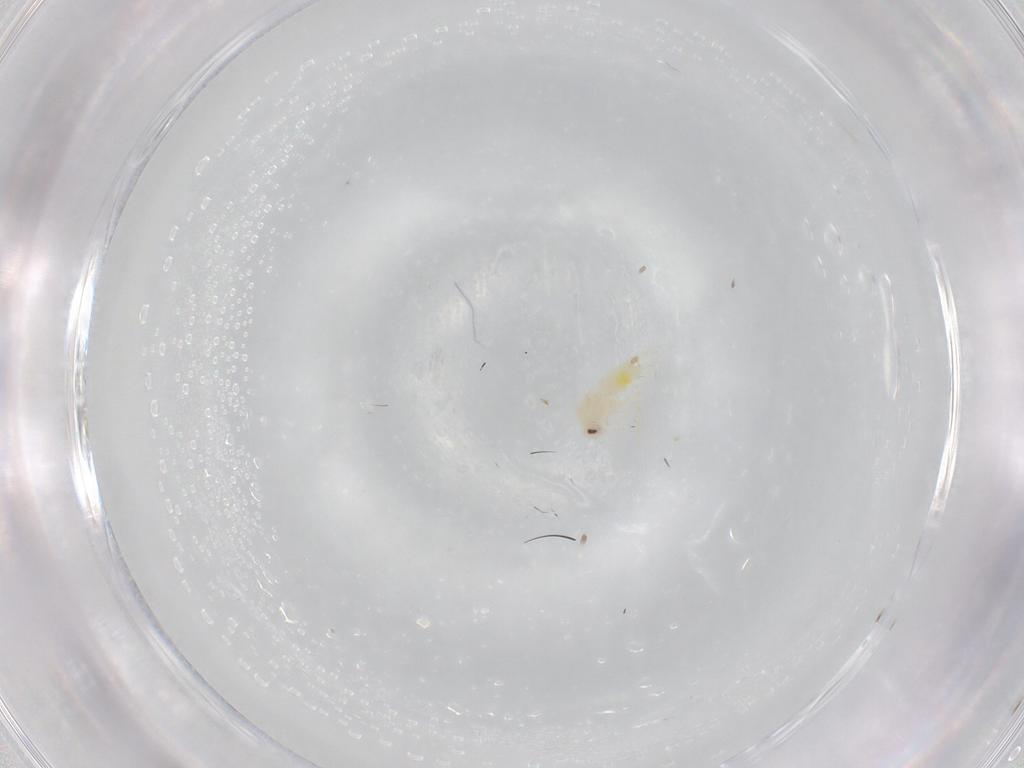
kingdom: Animalia
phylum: Arthropoda
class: Insecta
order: Hemiptera
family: Aleyrodidae
